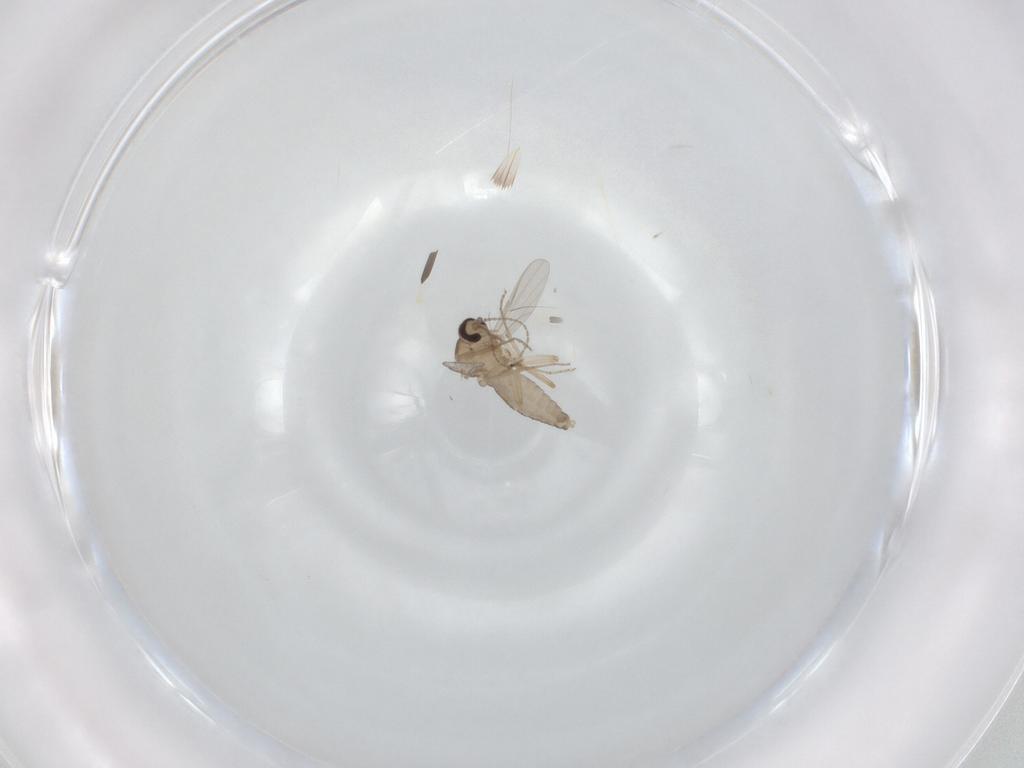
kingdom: Animalia
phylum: Arthropoda
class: Insecta
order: Diptera
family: Ceratopogonidae
